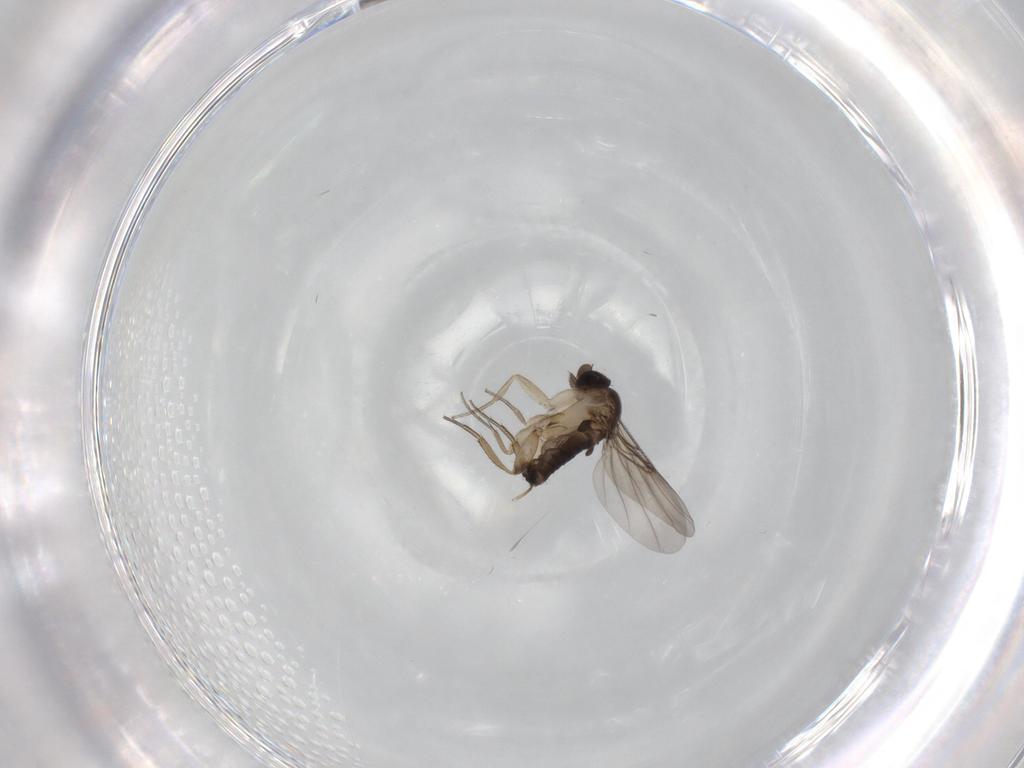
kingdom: Animalia
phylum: Arthropoda
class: Insecta
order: Diptera
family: Phoridae
